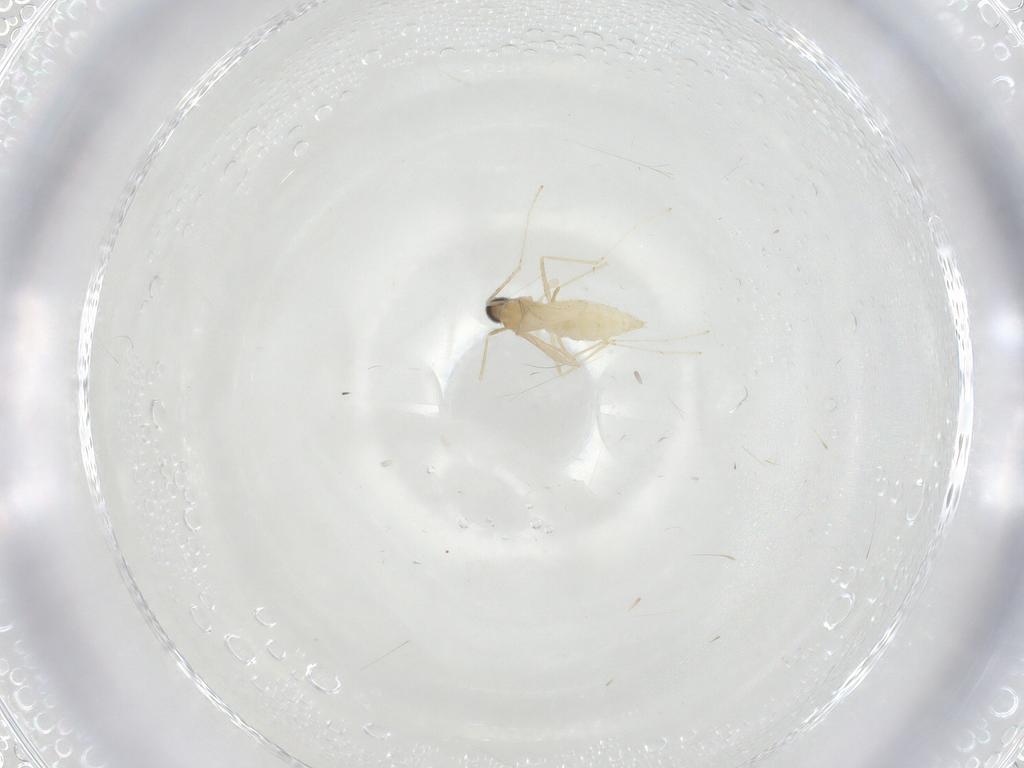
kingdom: Animalia
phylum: Arthropoda
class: Insecta
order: Diptera
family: Cecidomyiidae
